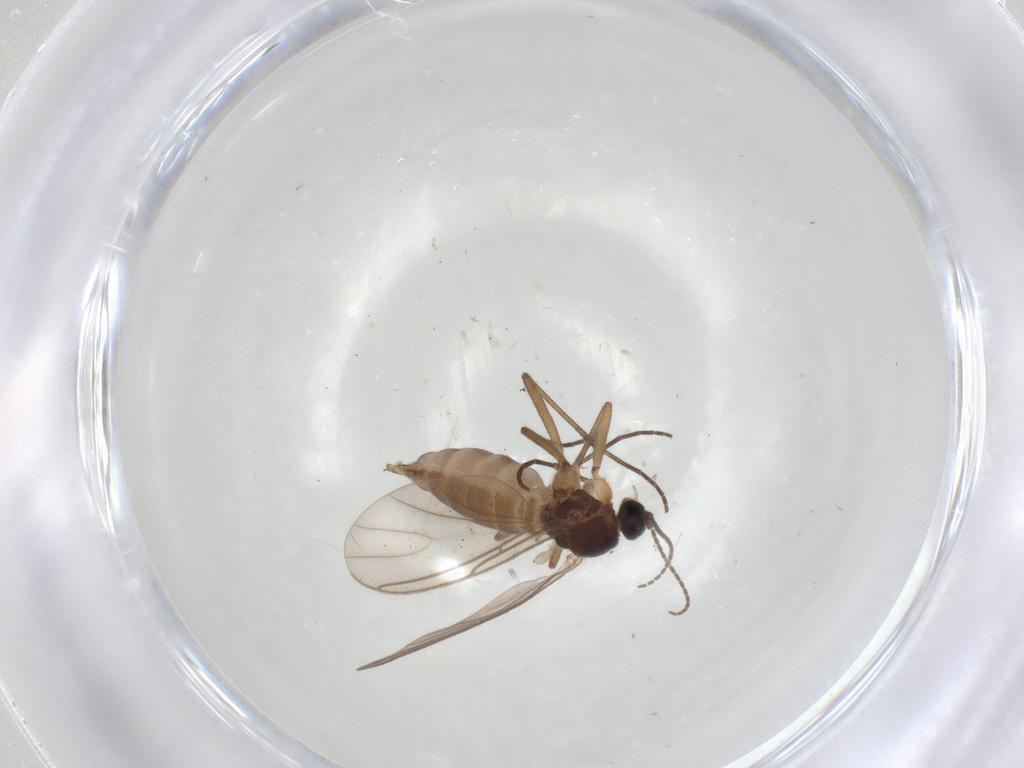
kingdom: Animalia
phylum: Arthropoda
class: Insecta
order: Diptera
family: Sciaridae
